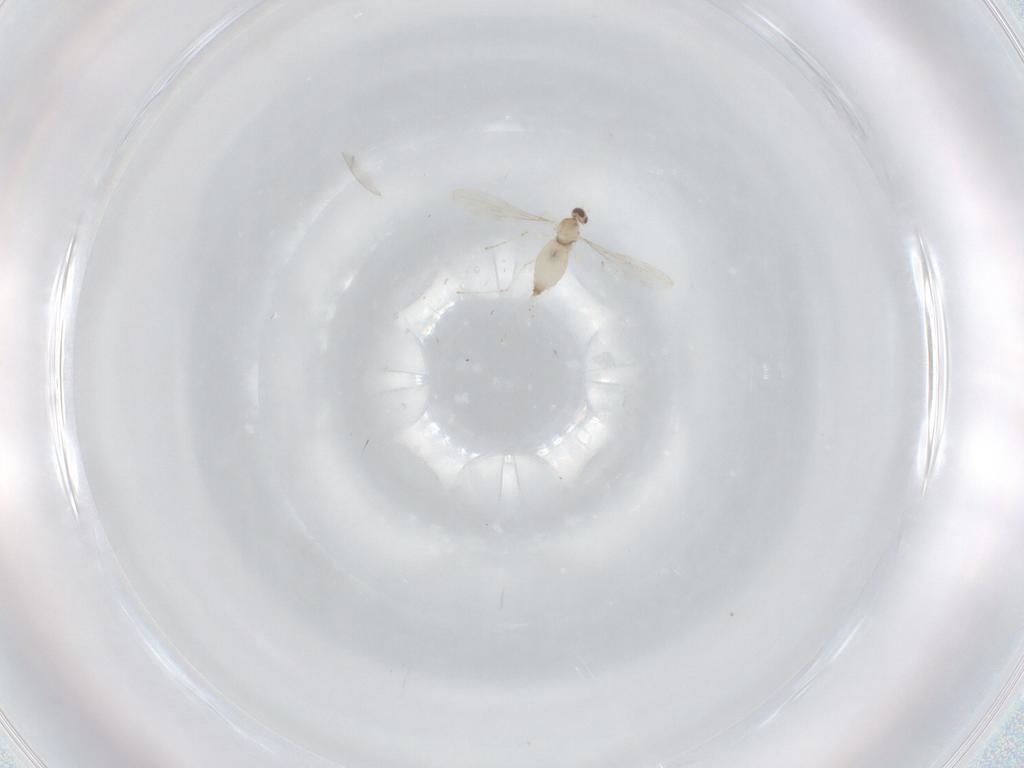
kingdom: Animalia
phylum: Arthropoda
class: Insecta
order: Diptera
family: Cecidomyiidae
